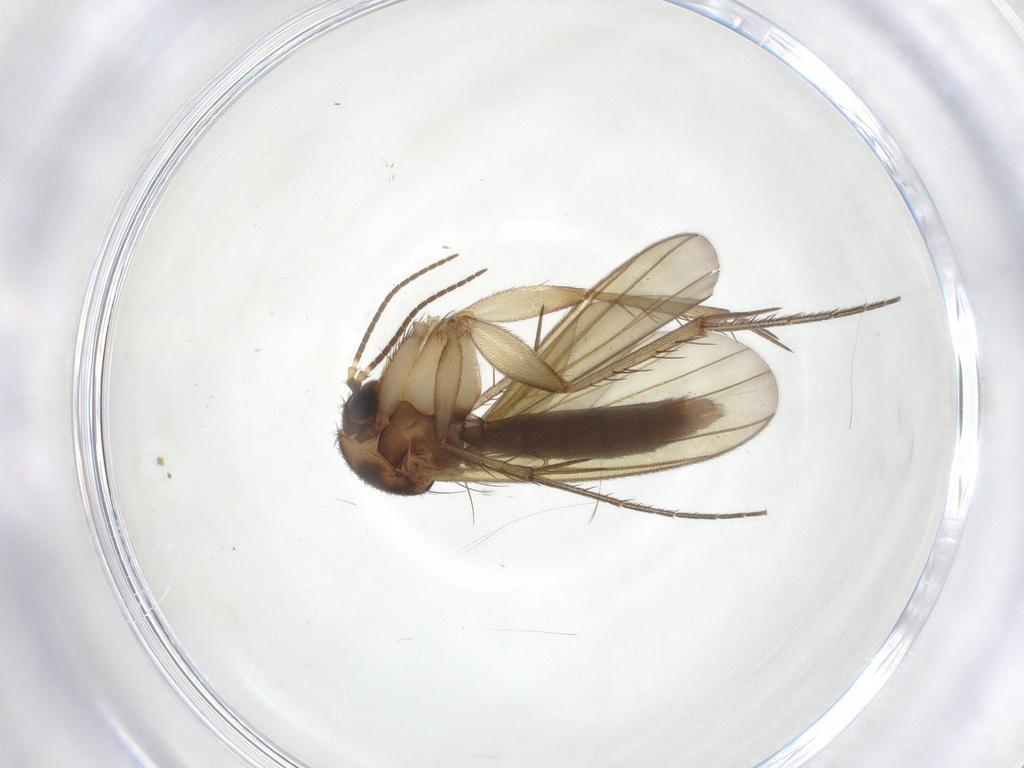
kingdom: Animalia
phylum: Arthropoda
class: Insecta
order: Diptera
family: Mycetophilidae
